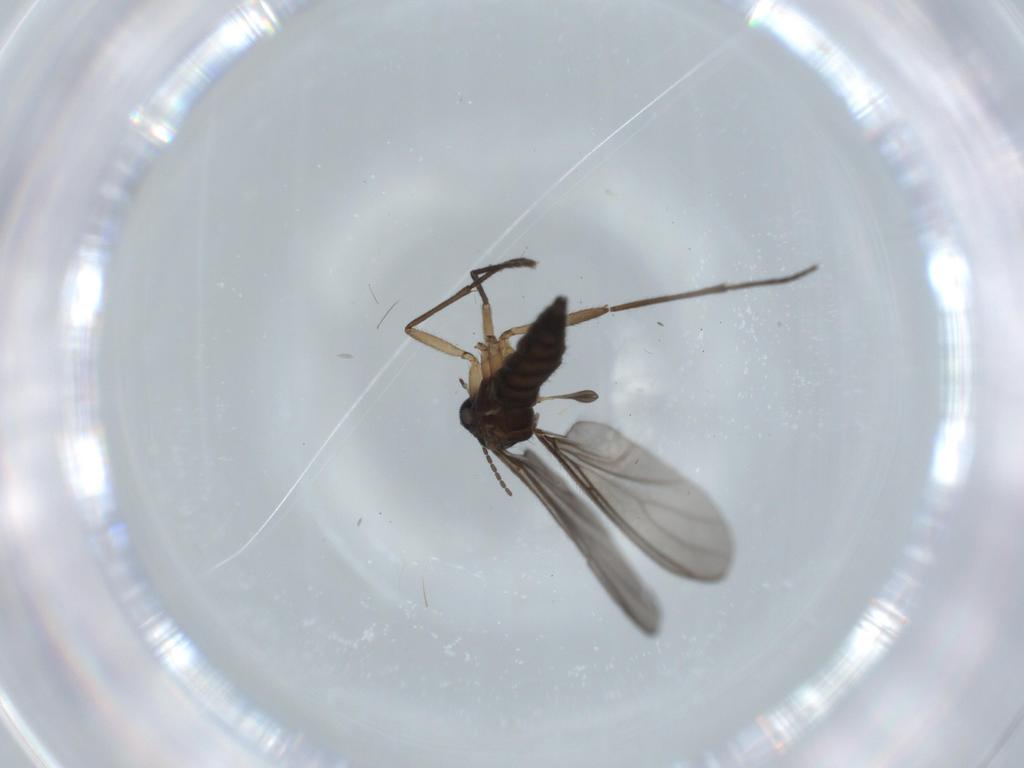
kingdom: Animalia
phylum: Arthropoda
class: Insecta
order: Diptera
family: Sciaridae
